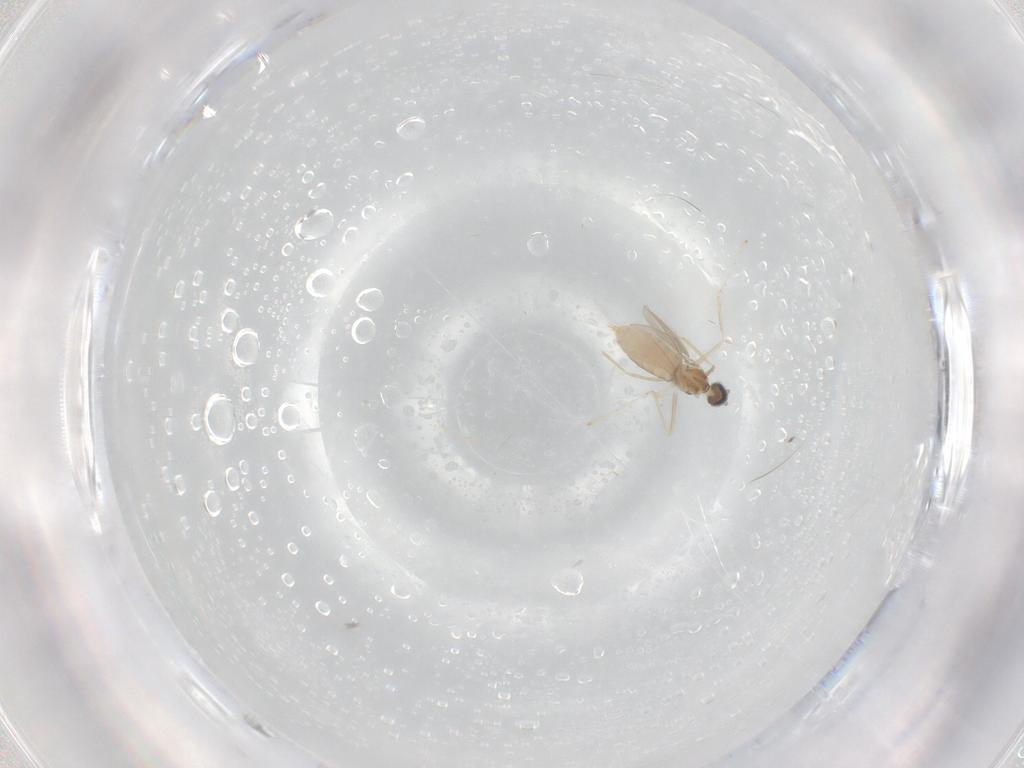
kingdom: Animalia
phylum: Arthropoda
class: Insecta
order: Diptera
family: Cecidomyiidae
